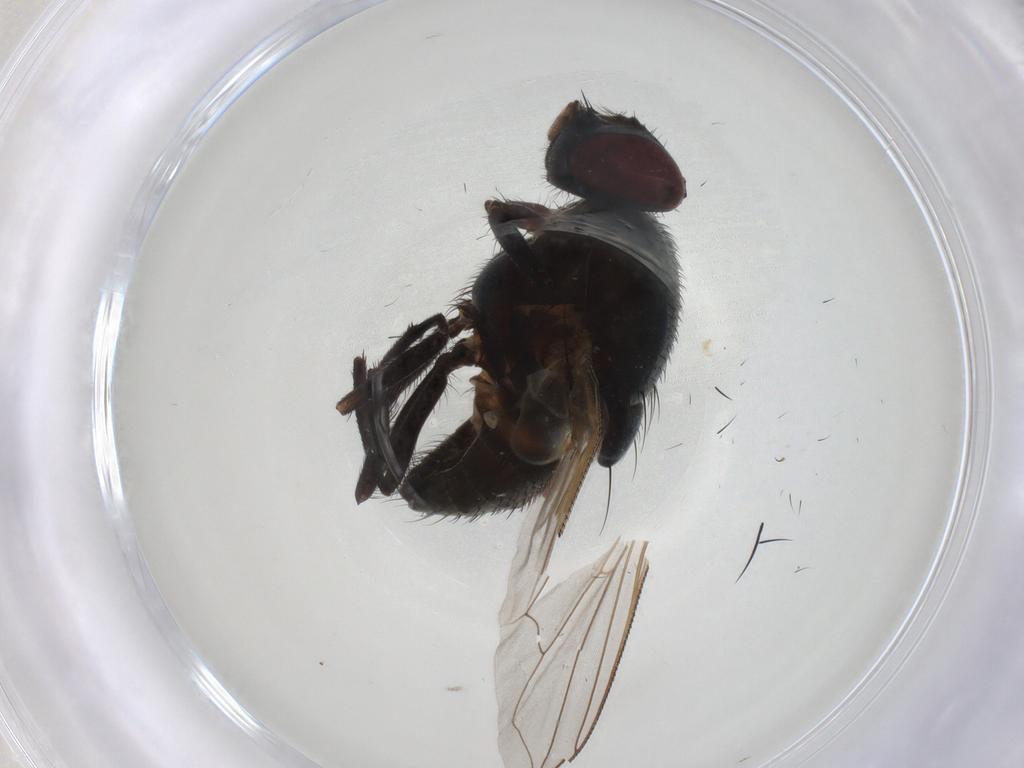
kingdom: Animalia
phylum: Arthropoda
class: Insecta
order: Diptera
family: Muscidae
